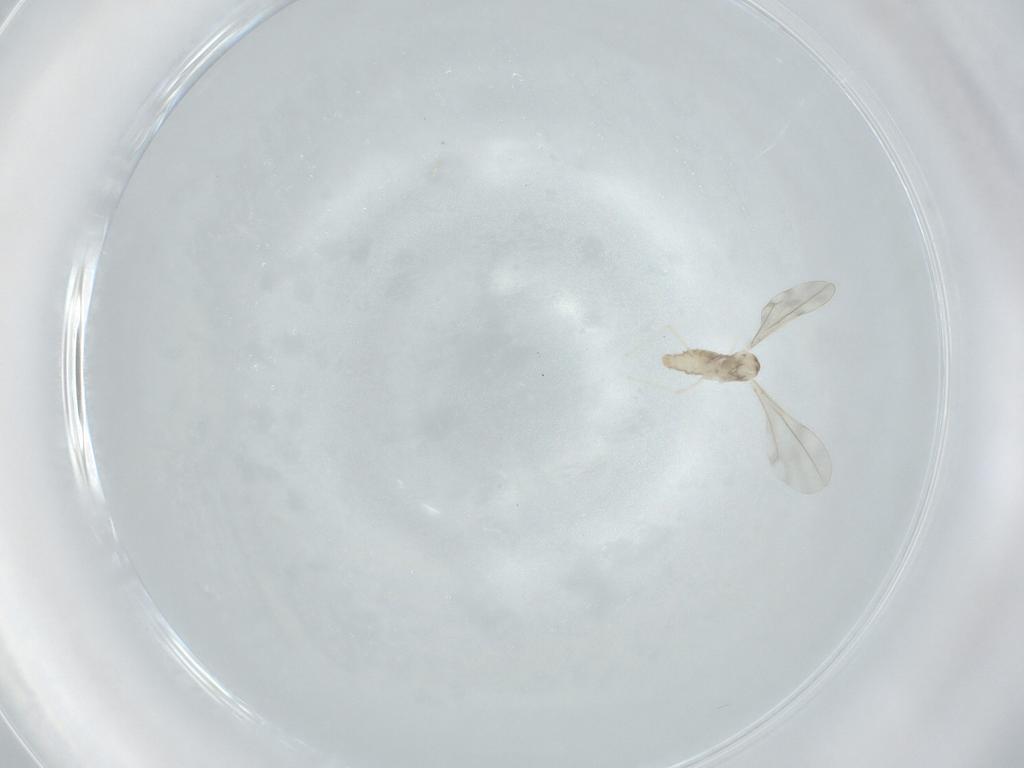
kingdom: Animalia
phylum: Arthropoda
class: Insecta
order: Diptera
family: Cecidomyiidae
